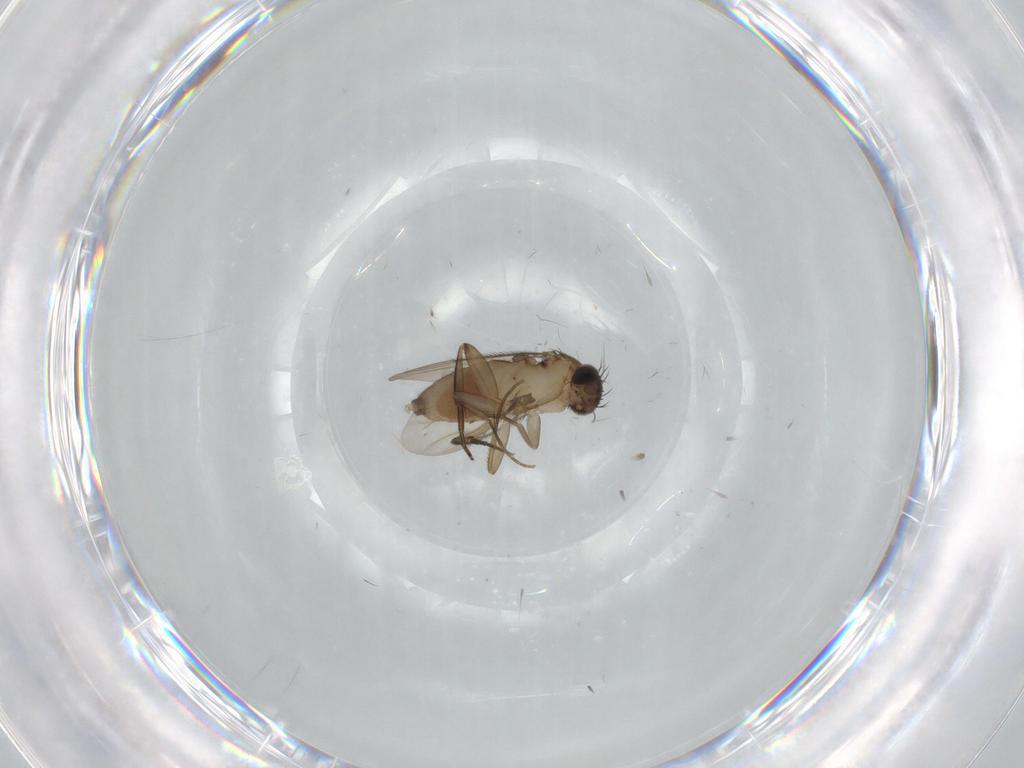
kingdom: Animalia
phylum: Arthropoda
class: Insecta
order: Diptera
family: Phoridae
